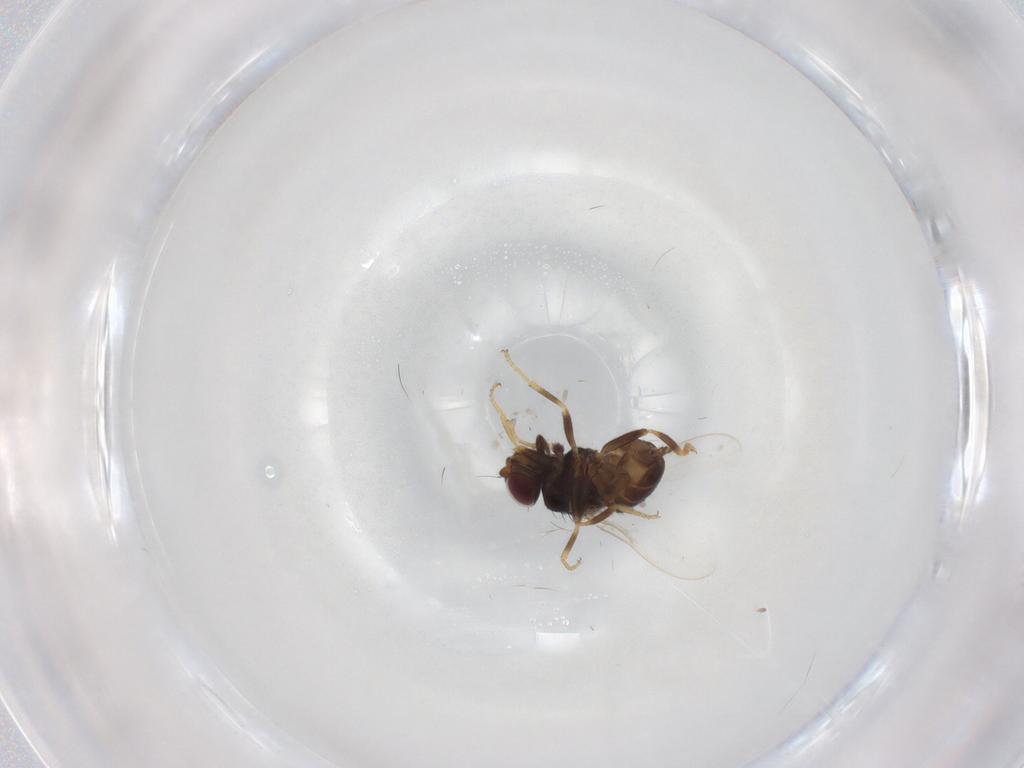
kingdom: Animalia
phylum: Arthropoda
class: Insecta
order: Diptera
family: Chloropidae
